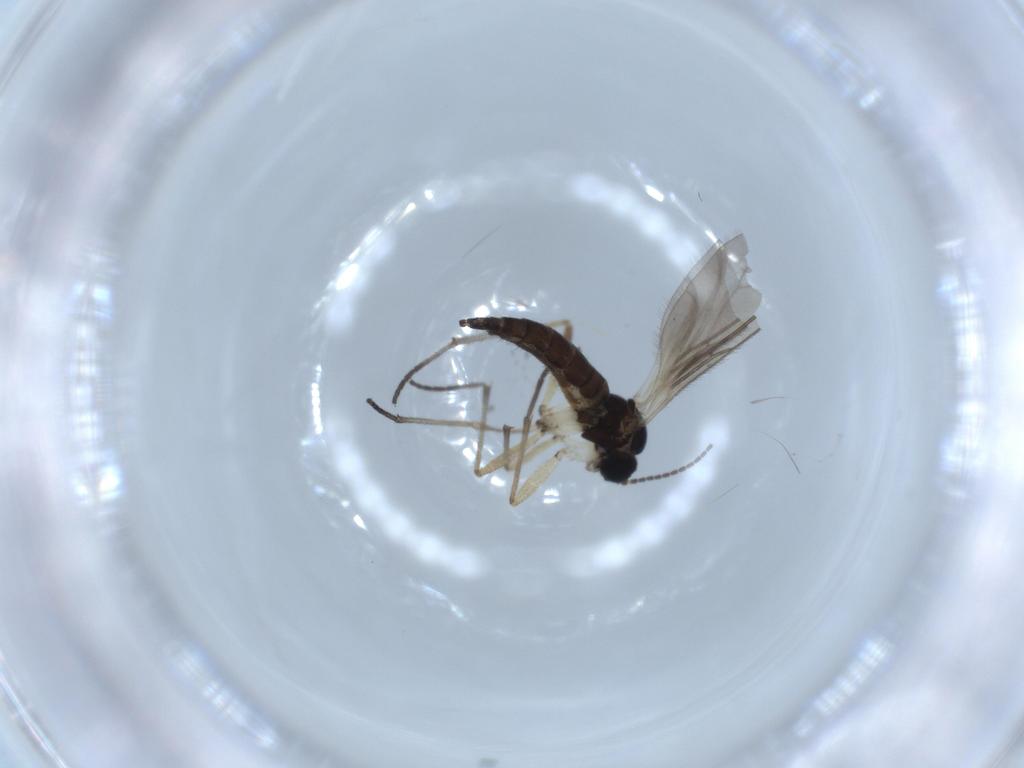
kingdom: Animalia
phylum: Arthropoda
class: Insecta
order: Diptera
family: Sciaridae
